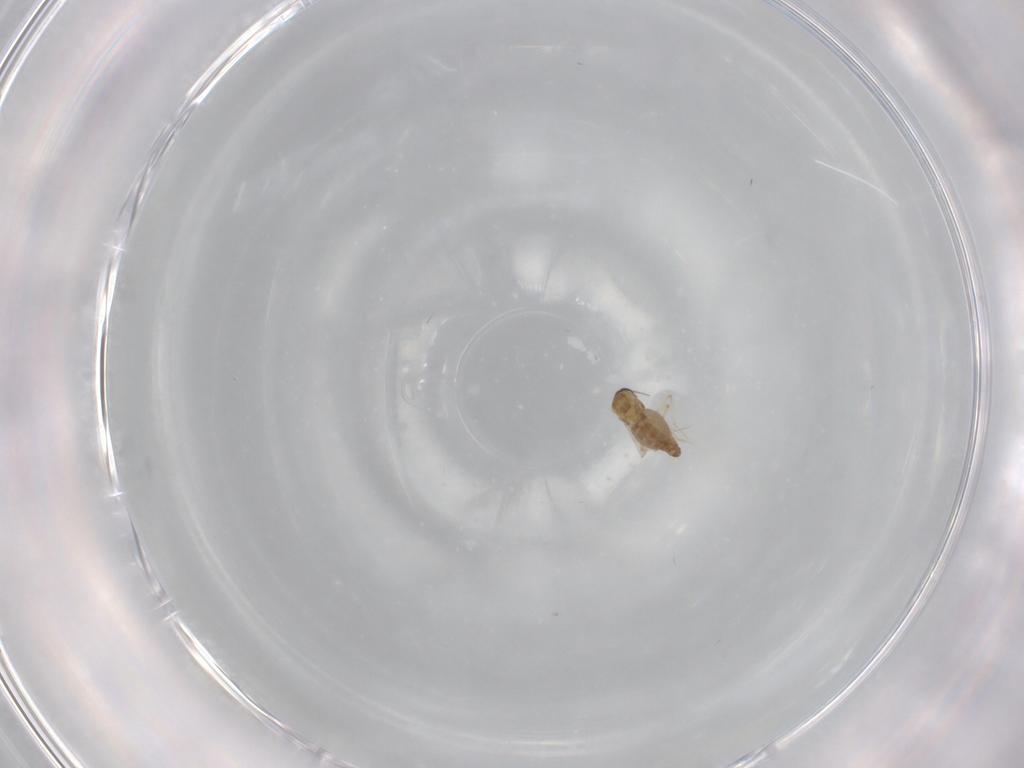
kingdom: Animalia
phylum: Arthropoda
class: Insecta
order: Diptera
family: Ceratopogonidae
